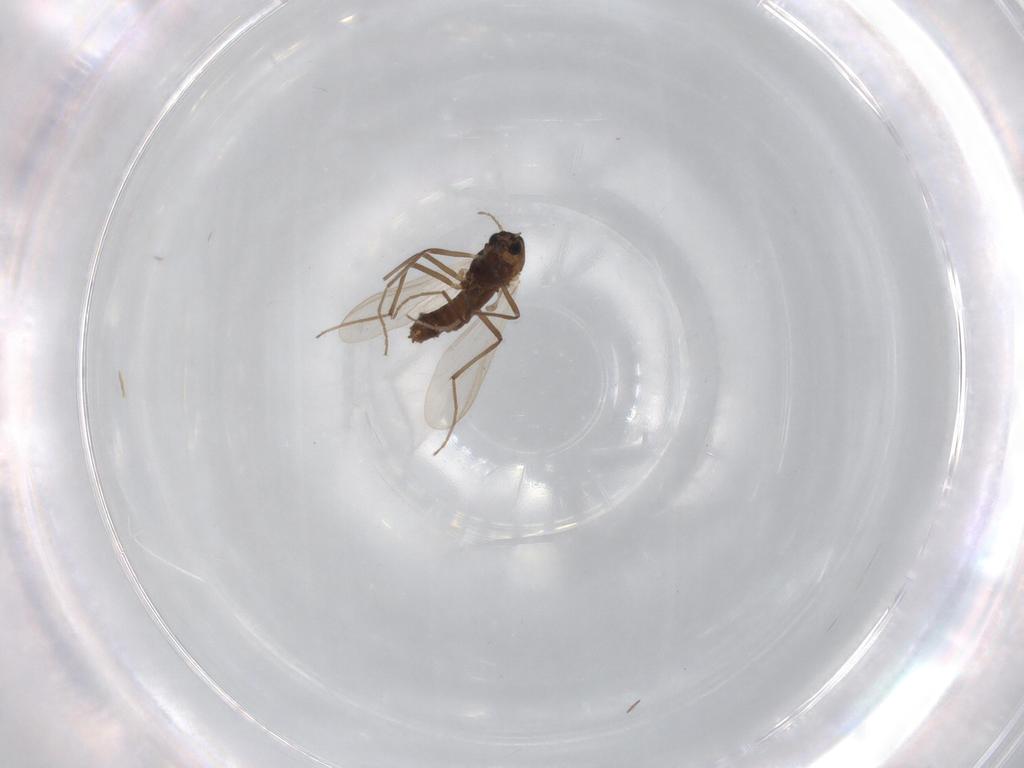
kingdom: Animalia
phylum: Arthropoda
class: Insecta
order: Diptera
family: Chironomidae
